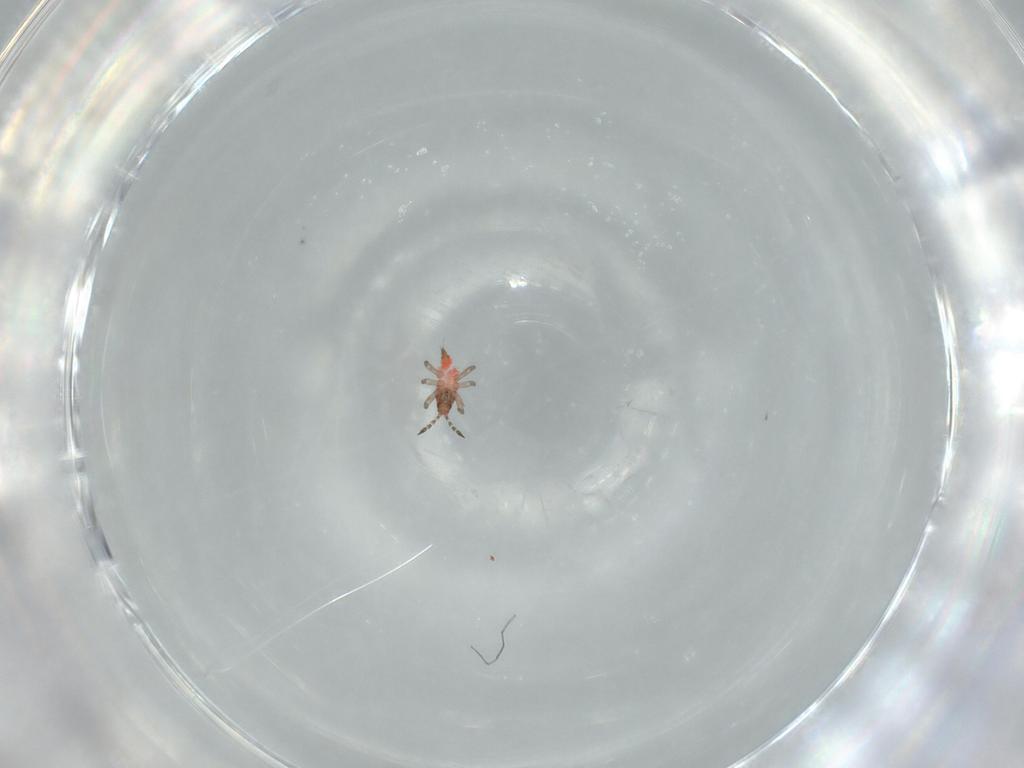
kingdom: Animalia
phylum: Arthropoda
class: Insecta
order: Thysanoptera
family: Phlaeothripidae
